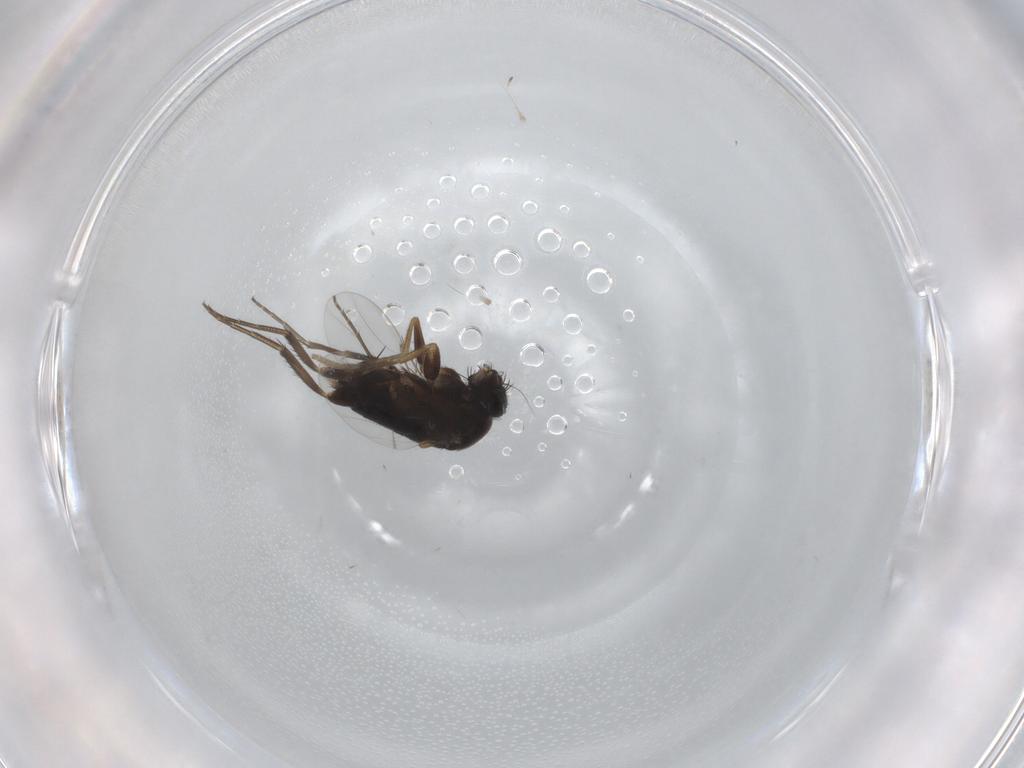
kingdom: Animalia
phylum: Arthropoda
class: Insecta
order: Diptera
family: Phoridae
